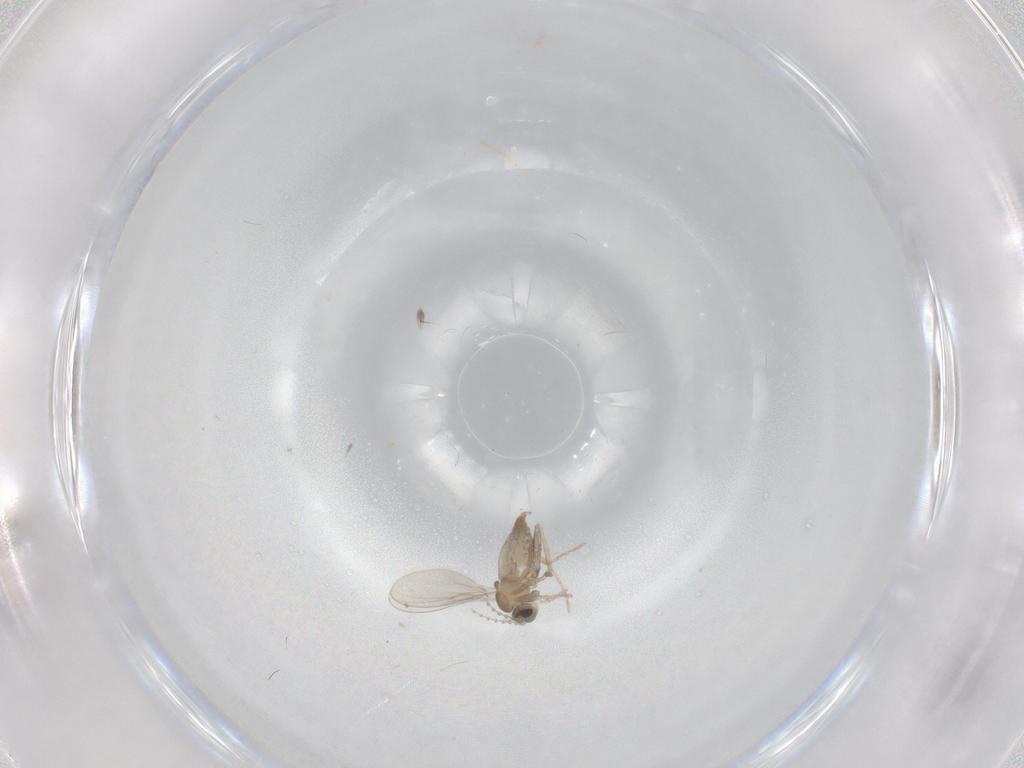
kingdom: Animalia
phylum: Arthropoda
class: Insecta
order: Diptera
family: Cecidomyiidae
